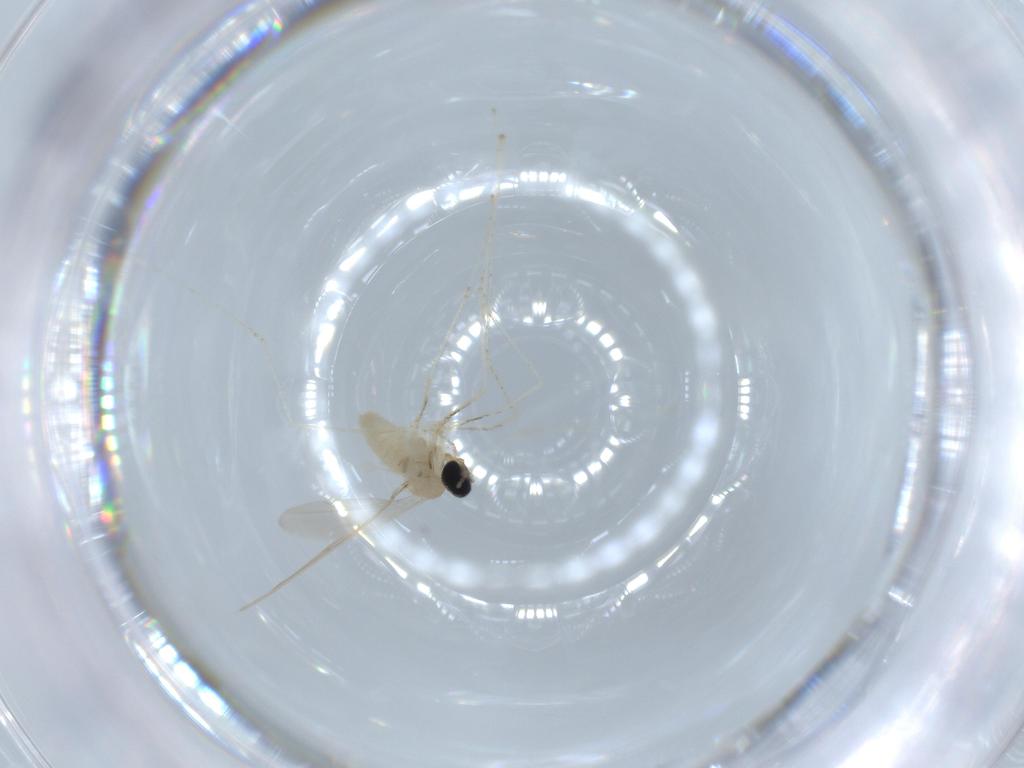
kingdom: Animalia
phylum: Arthropoda
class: Insecta
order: Diptera
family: Cecidomyiidae
